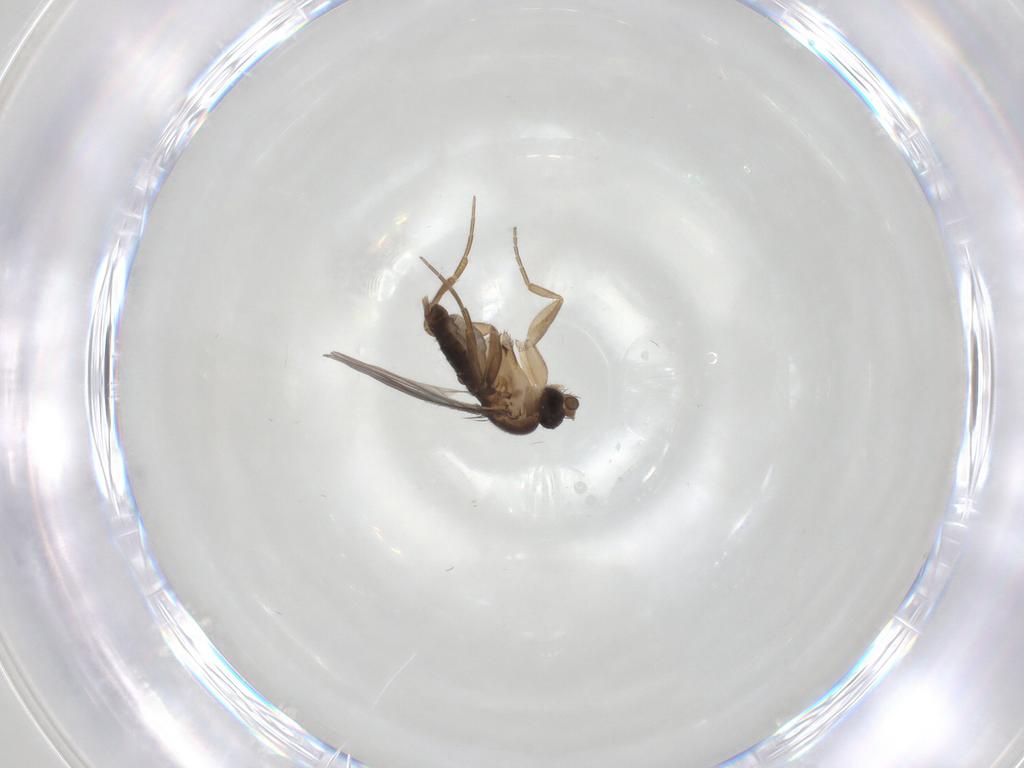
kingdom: Animalia
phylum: Arthropoda
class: Insecta
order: Diptera
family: Phoridae
